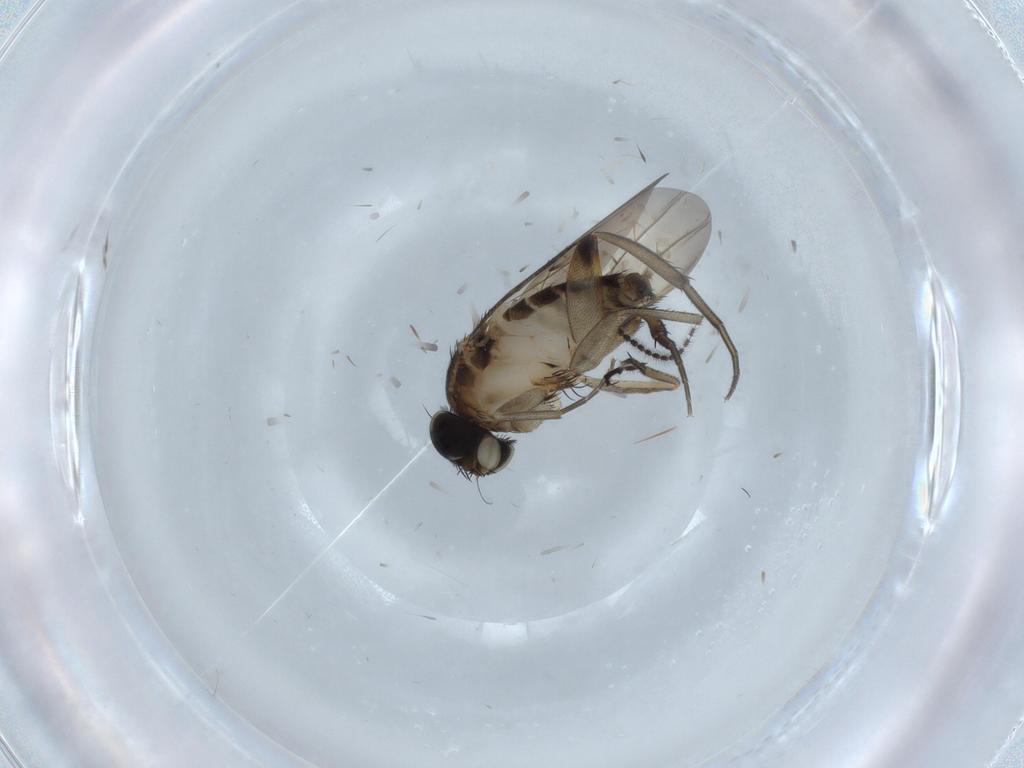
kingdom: Animalia
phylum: Arthropoda
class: Insecta
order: Diptera
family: Phoridae
